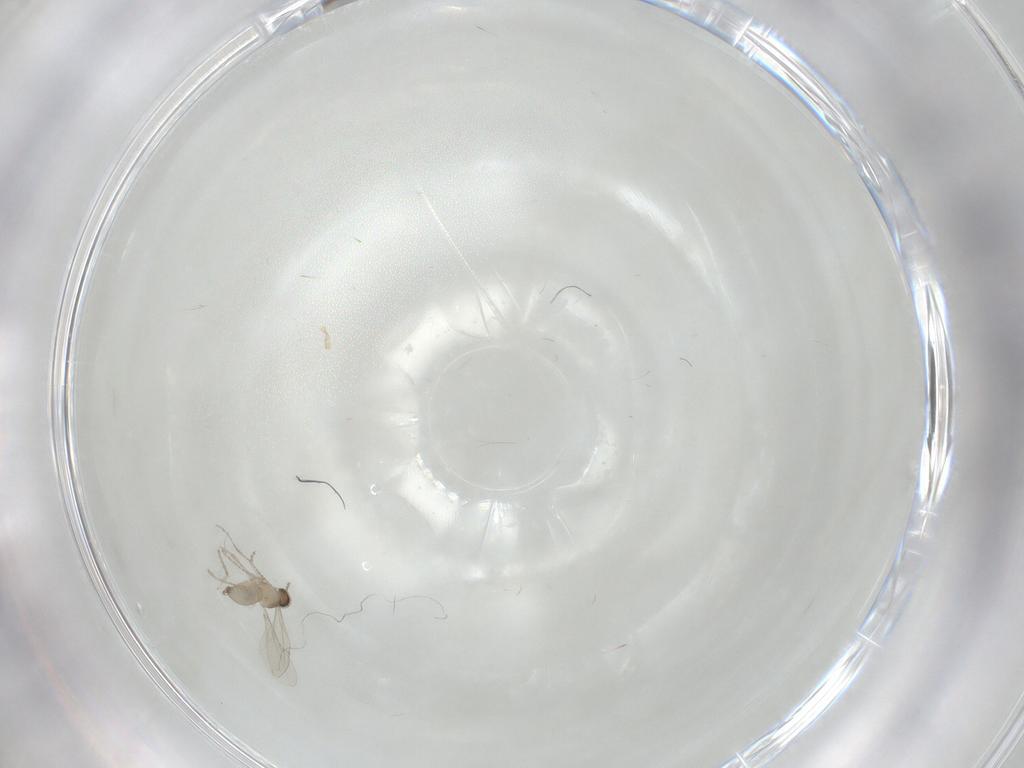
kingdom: Animalia
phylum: Arthropoda
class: Insecta
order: Diptera
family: Cecidomyiidae
